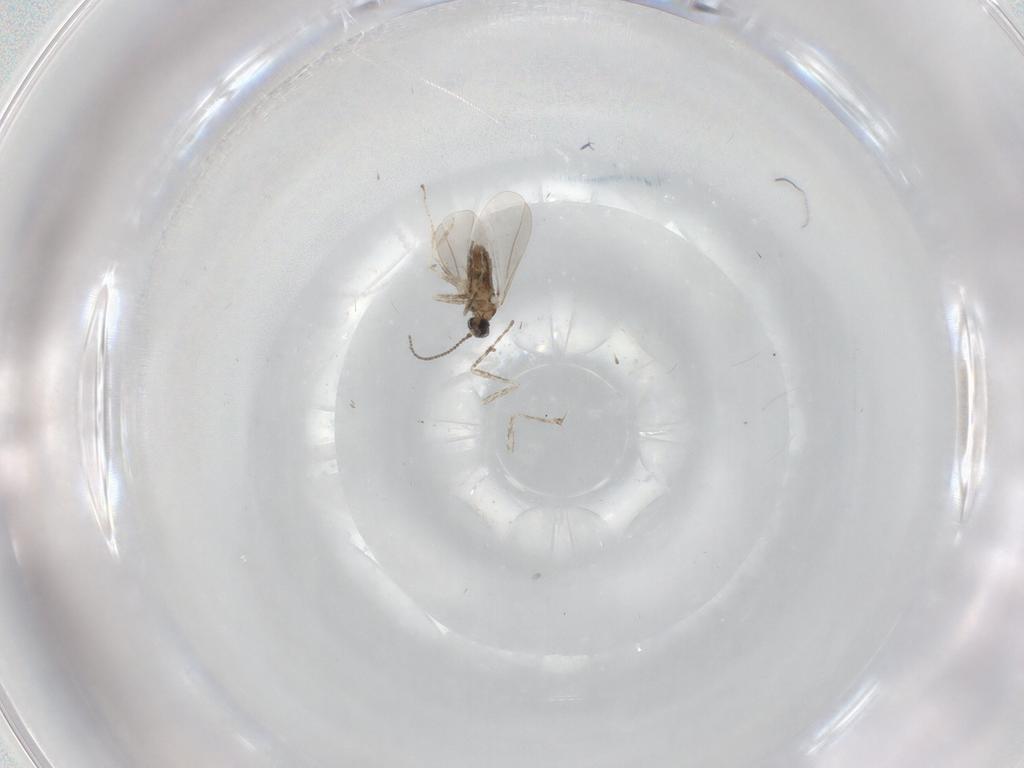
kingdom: Animalia
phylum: Arthropoda
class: Insecta
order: Diptera
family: Cecidomyiidae
